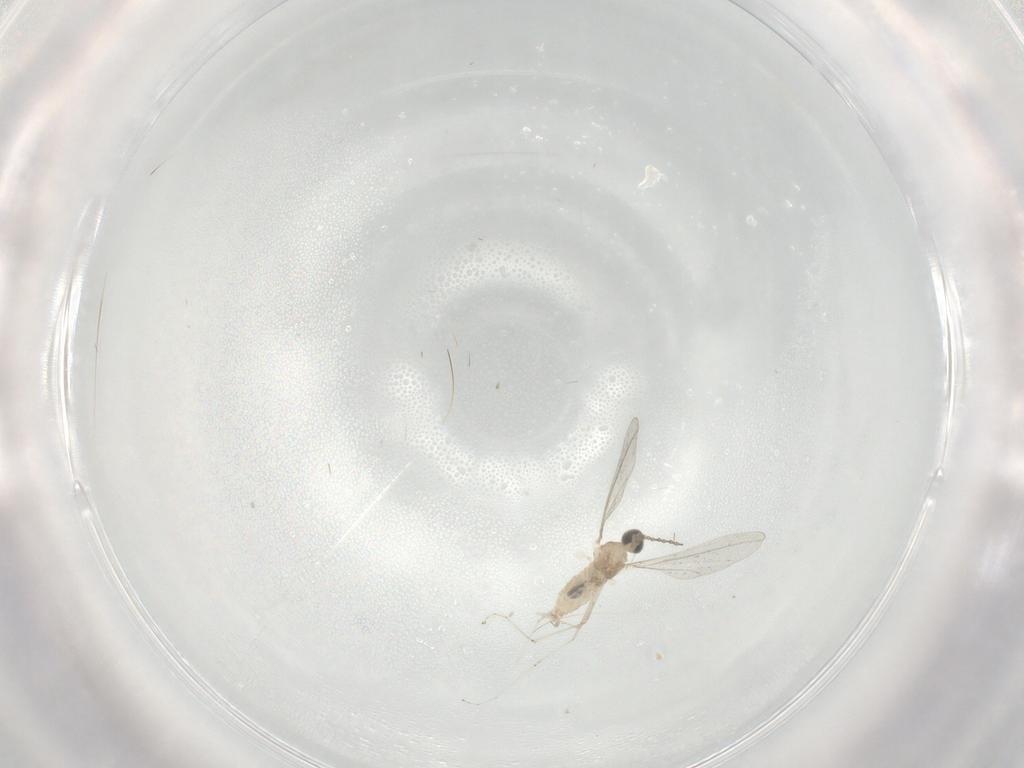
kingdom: Animalia
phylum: Arthropoda
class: Insecta
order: Diptera
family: Cecidomyiidae
